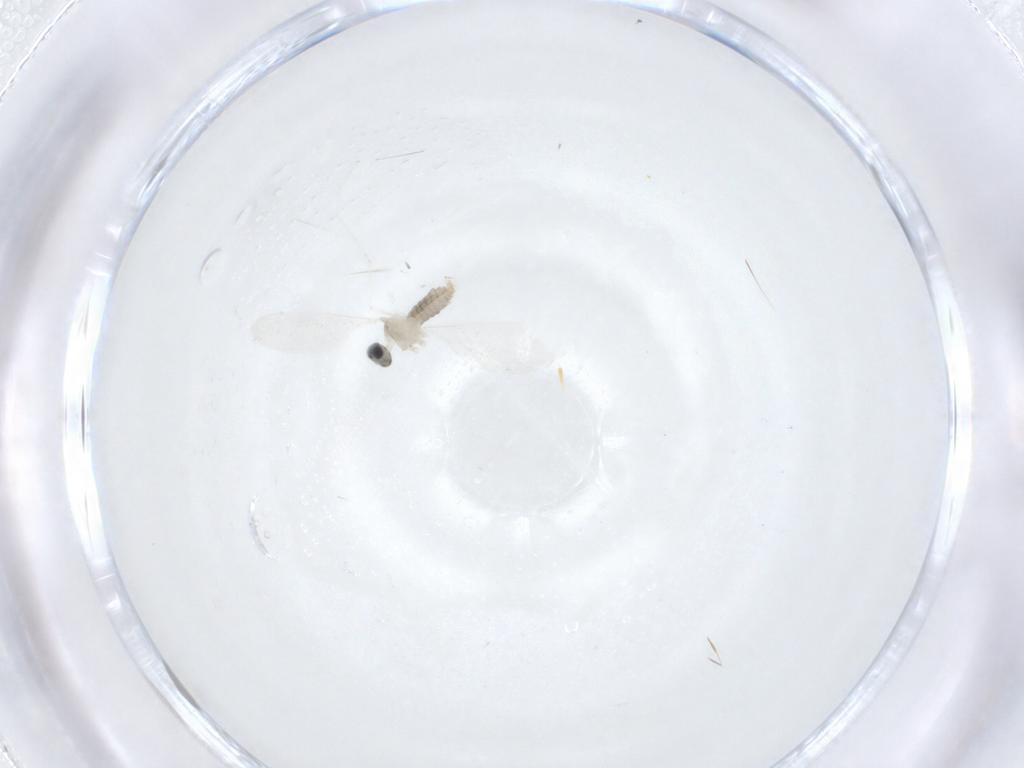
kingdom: Animalia
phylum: Arthropoda
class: Insecta
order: Diptera
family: Cecidomyiidae
